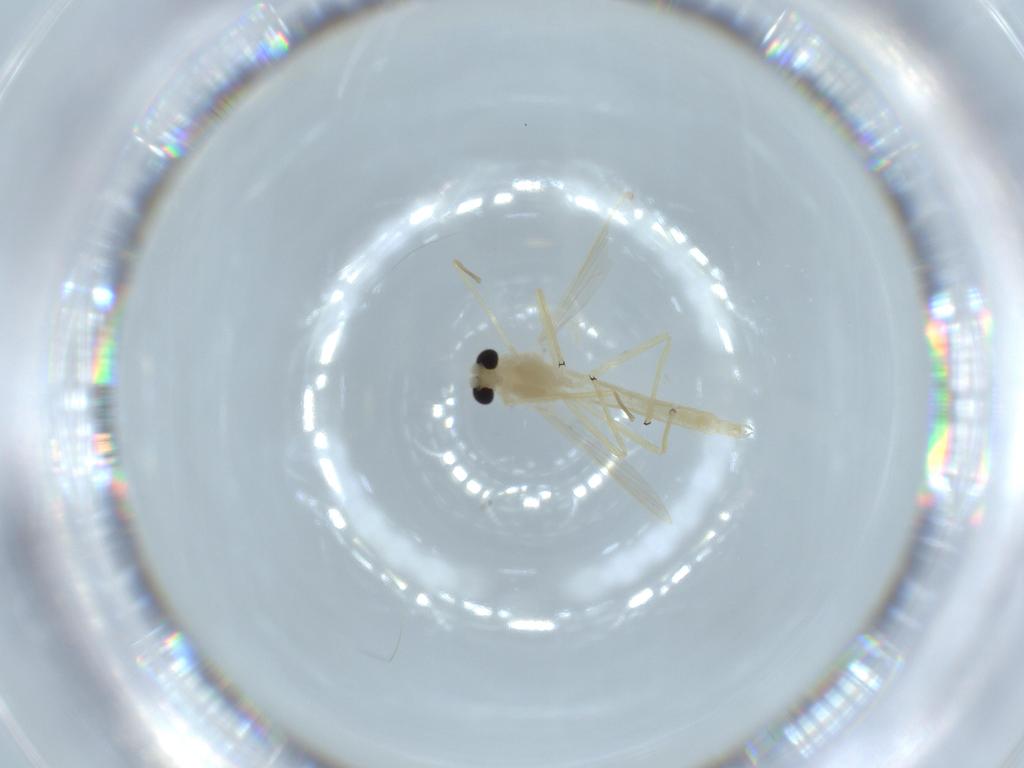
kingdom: Animalia
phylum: Arthropoda
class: Insecta
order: Diptera
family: Chironomidae
